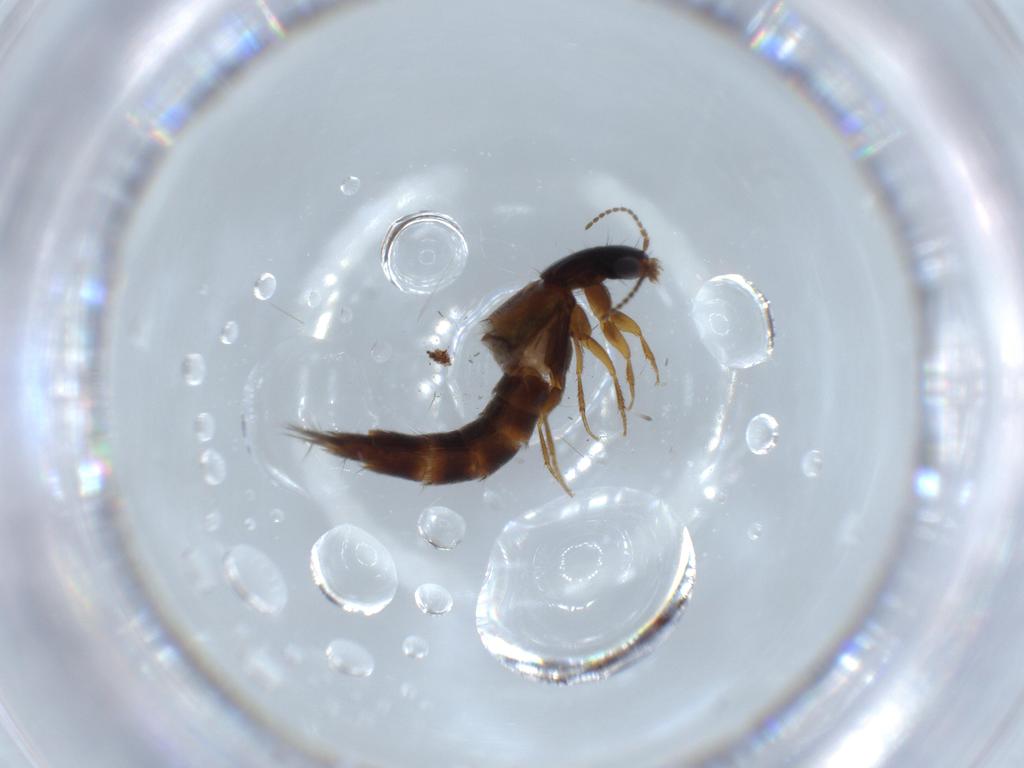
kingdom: Animalia
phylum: Arthropoda
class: Insecta
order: Coleoptera
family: Staphylinidae
